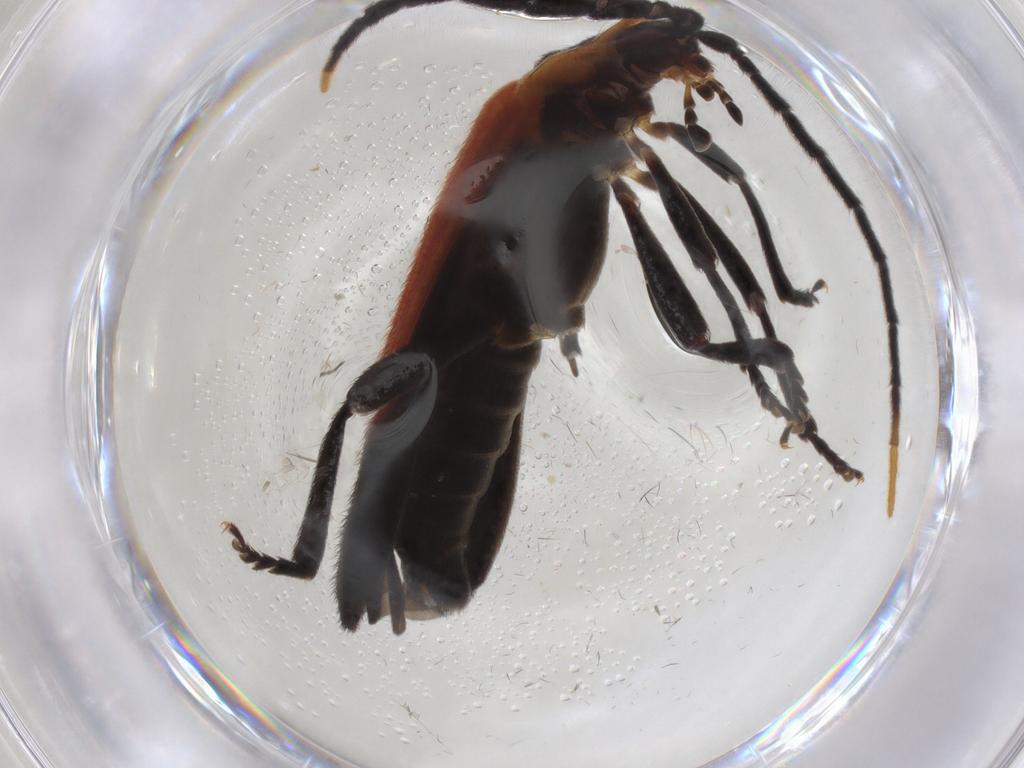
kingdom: Animalia
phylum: Arthropoda
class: Insecta
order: Coleoptera
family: Lycidae
